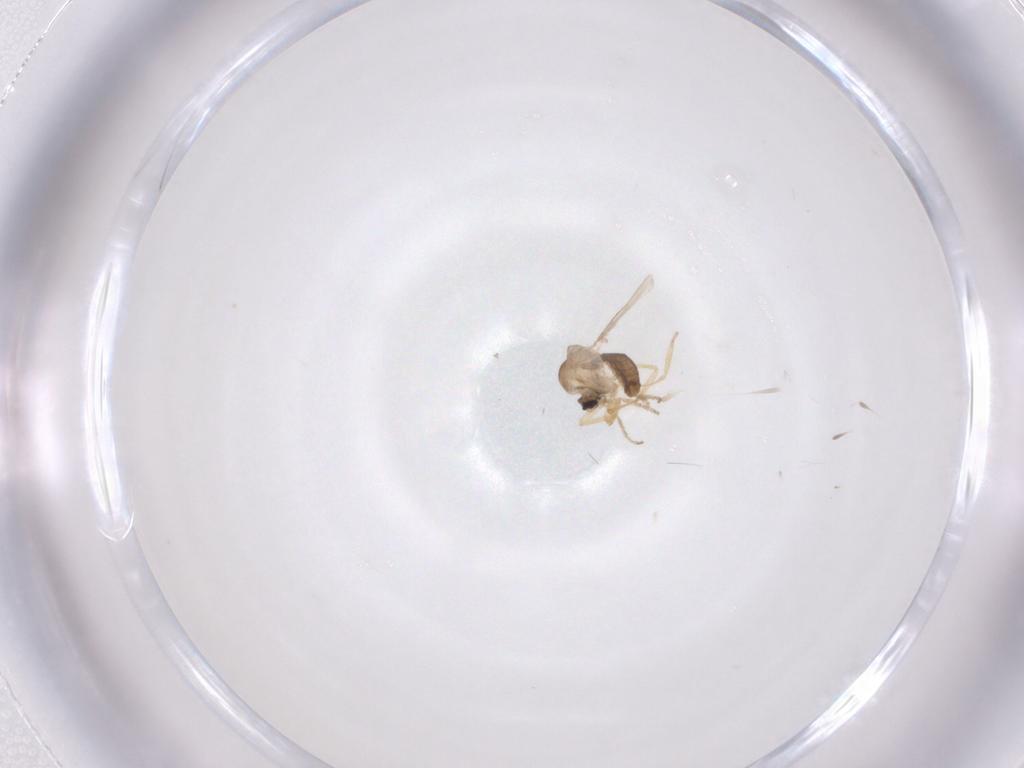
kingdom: Animalia
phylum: Arthropoda
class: Insecta
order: Diptera
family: Ceratopogonidae
